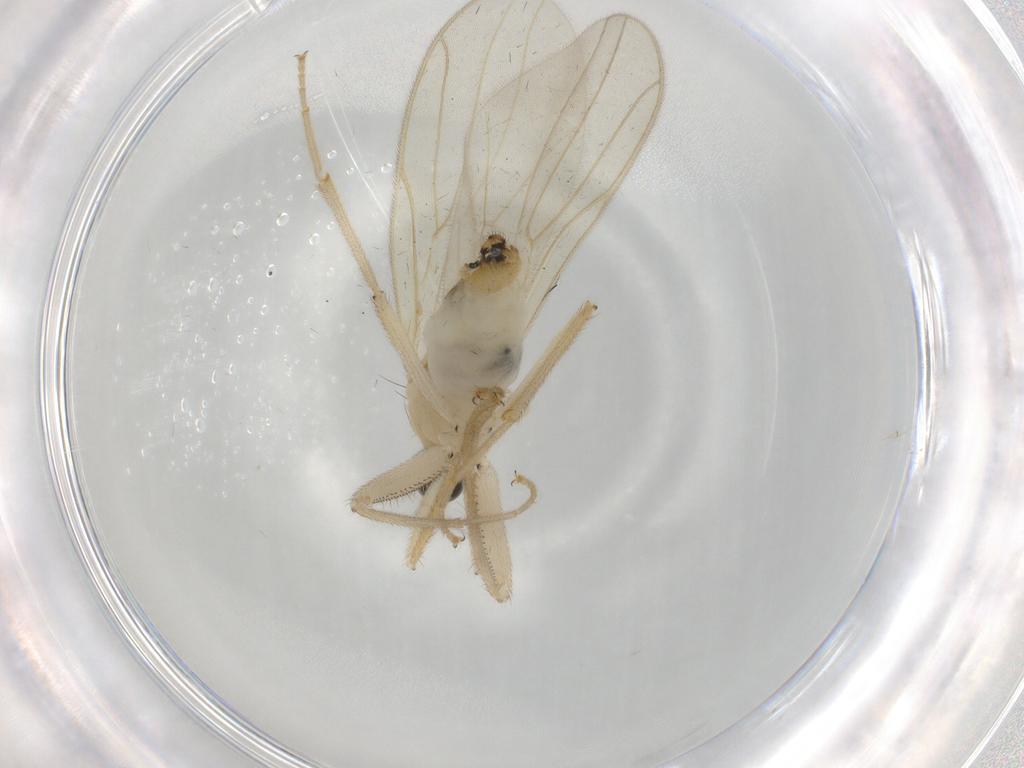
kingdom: Animalia
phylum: Arthropoda
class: Insecta
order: Diptera
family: Hybotidae
